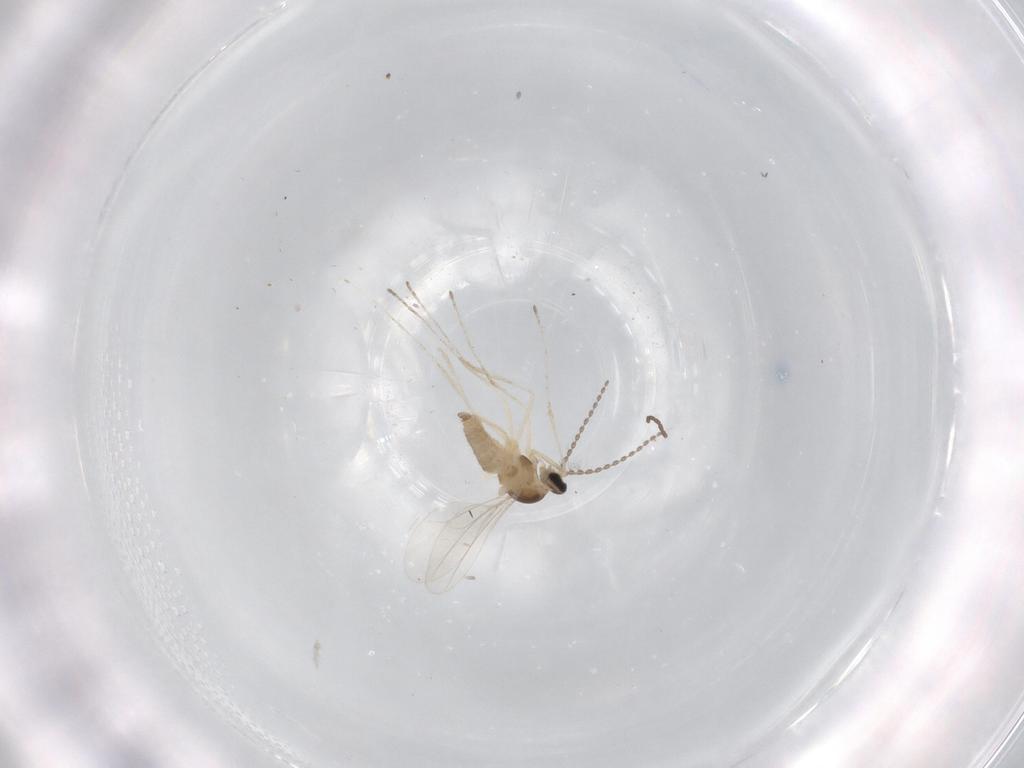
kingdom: Animalia
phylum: Arthropoda
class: Insecta
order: Diptera
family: Cecidomyiidae
